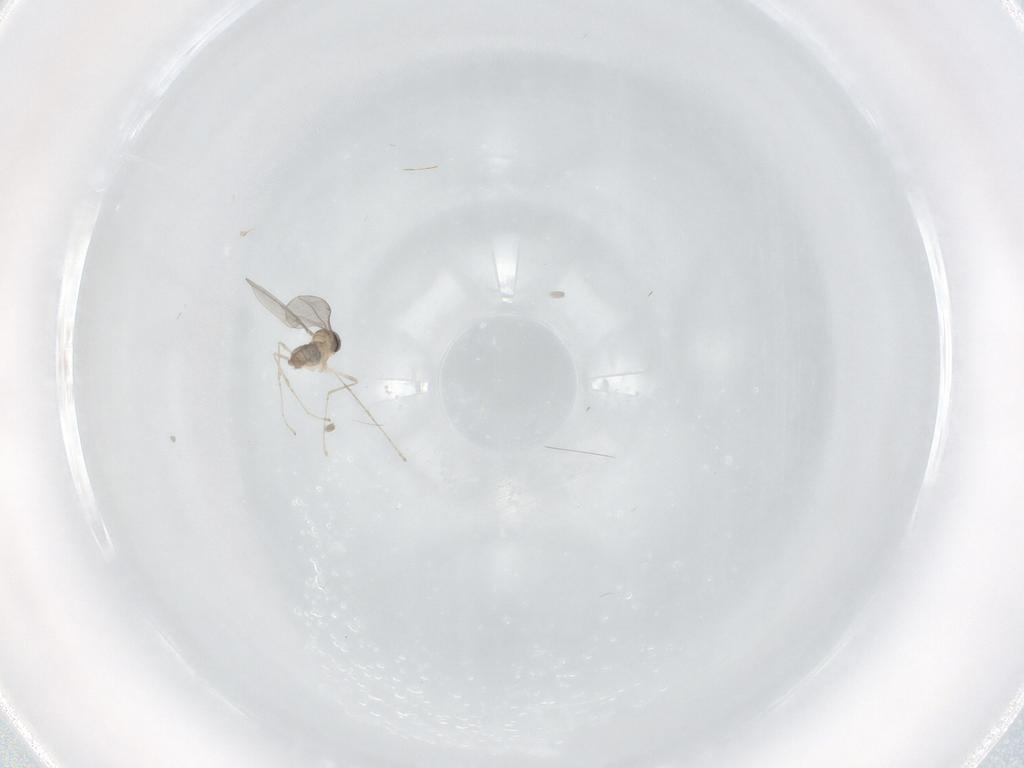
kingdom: Animalia
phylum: Arthropoda
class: Insecta
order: Diptera
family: Cecidomyiidae
